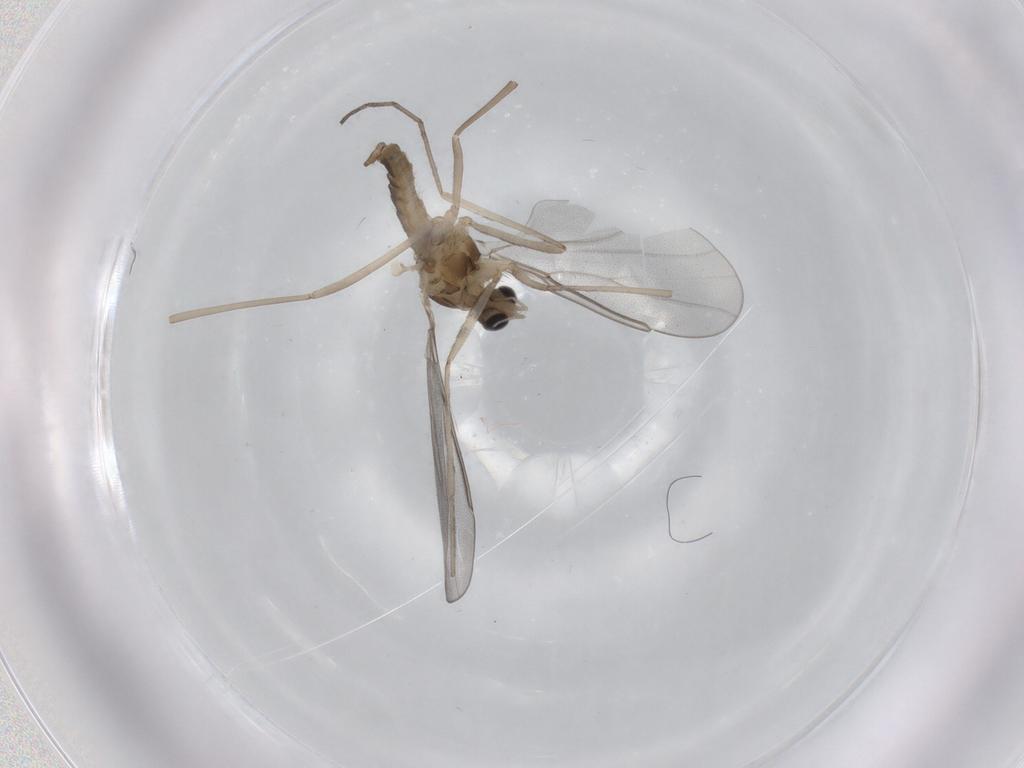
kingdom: Animalia
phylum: Arthropoda
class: Insecta
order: Diptera
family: Cecidomyiidae
